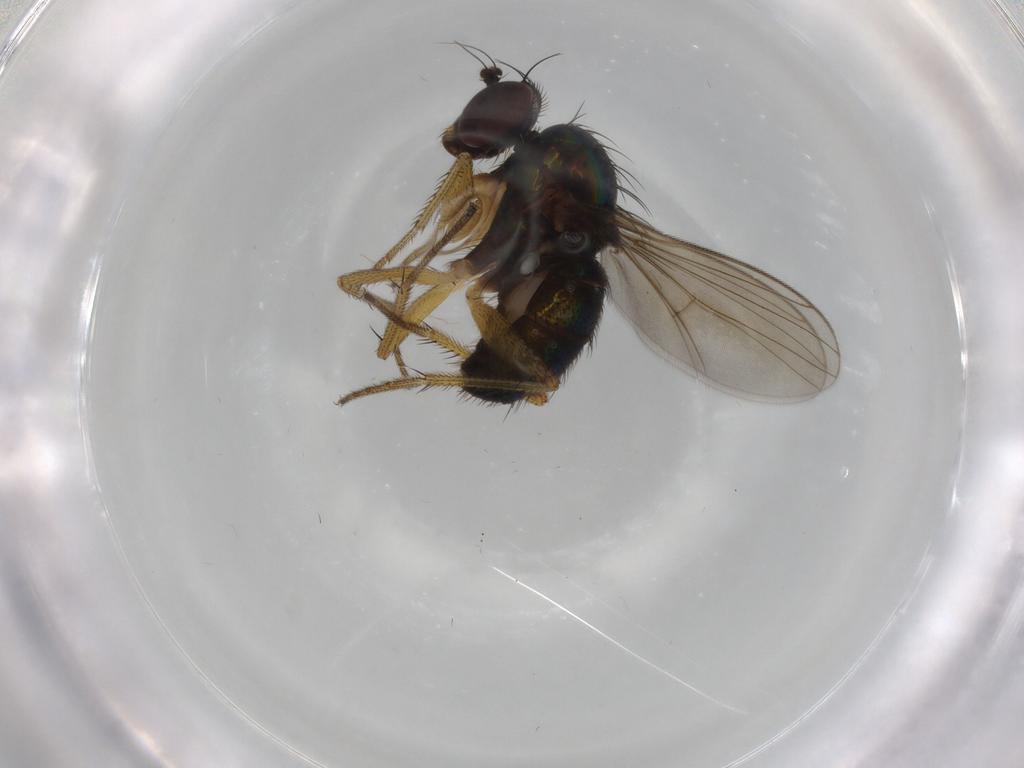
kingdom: Animalia
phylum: Arthropoda
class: Insecta
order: Diptera
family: Dolichopodidae
